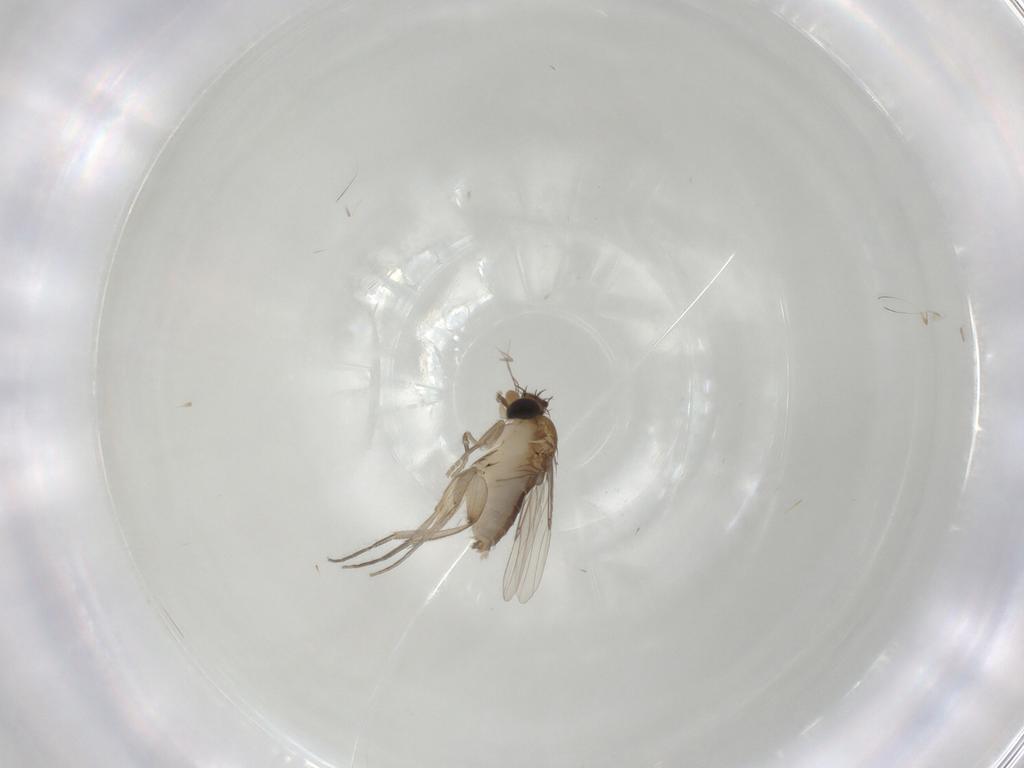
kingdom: Animalia
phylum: Arthropoda
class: Insecta
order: Diptera
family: Phoridae
